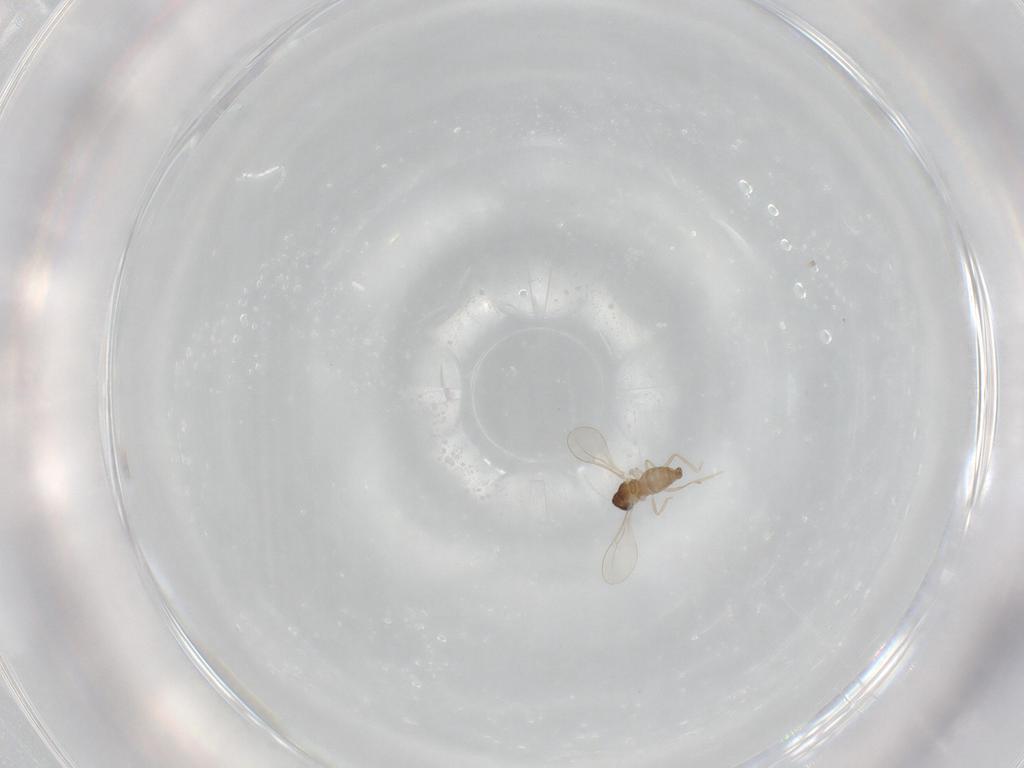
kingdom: Animalia
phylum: Arthropoda
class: Insecta
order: Diptera
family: Cecidomyiidae
